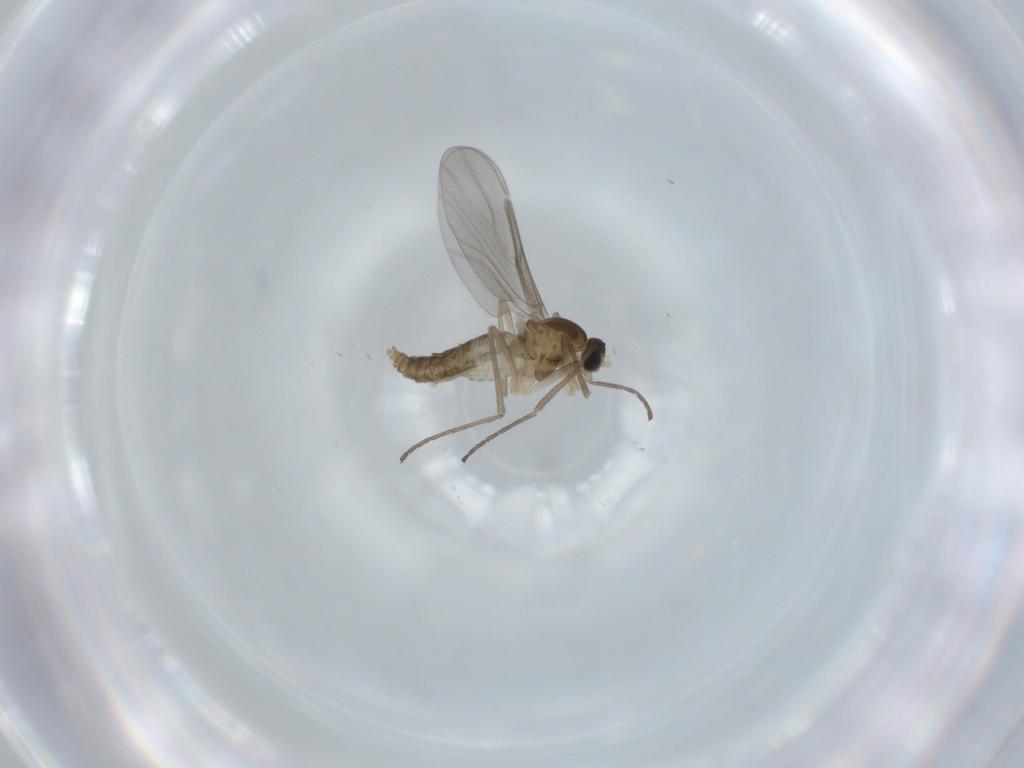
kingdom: Animalia
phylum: Arthropoda
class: Insecta
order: Diptera
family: Cecidomyiidae
